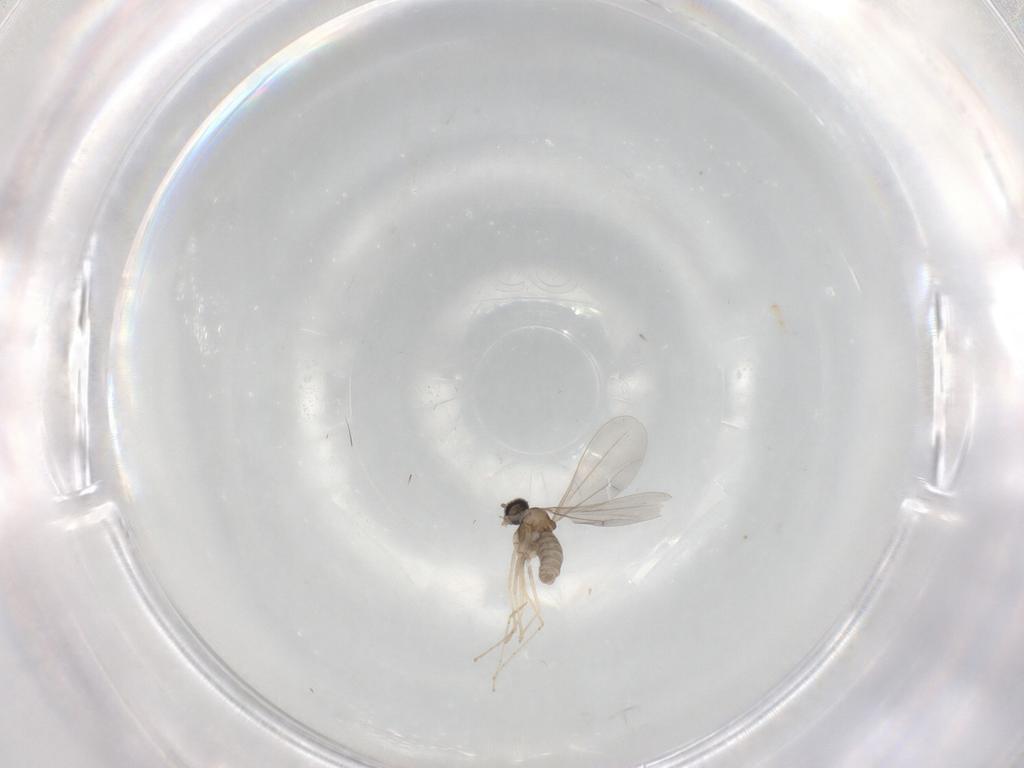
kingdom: Animalia
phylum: Arthropoda
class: Insecta
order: Diptera
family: Cecidomyiidae
